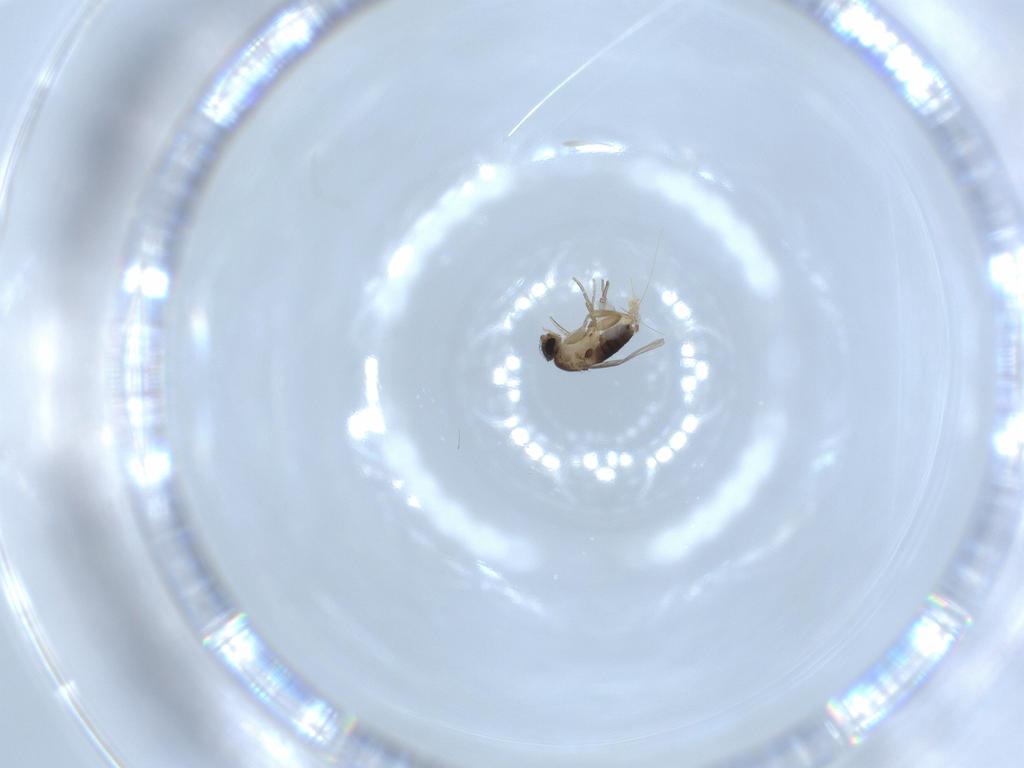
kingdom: Animalia
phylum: Arthropoda
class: Insecta
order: Diptera
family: Phoridae
